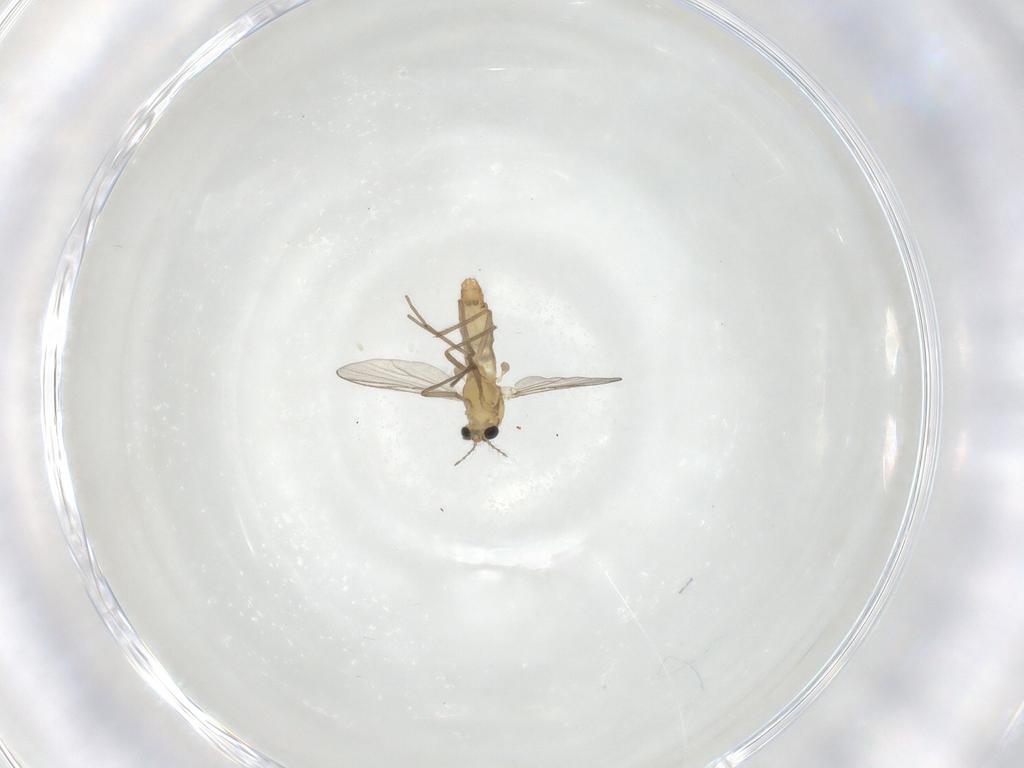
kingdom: Animalia
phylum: Arthropoda
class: Insecta
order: Diptera
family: Chironomidae
